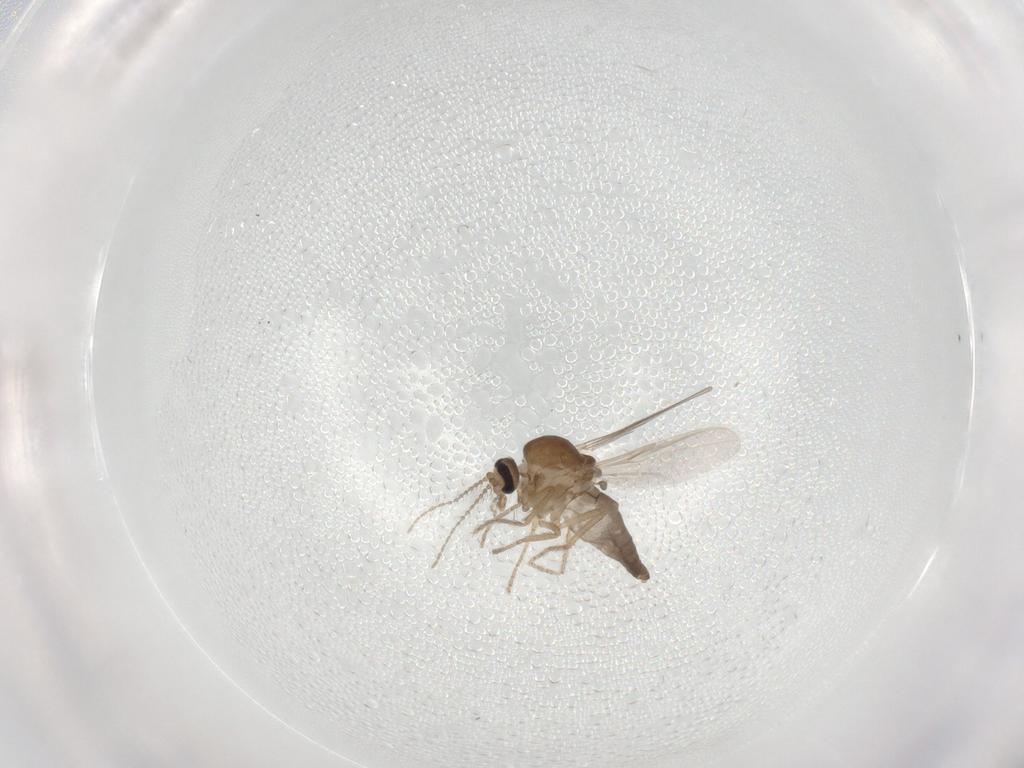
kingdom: Animalia
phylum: Arthropoda
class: Insecta
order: Diptera
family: Ceratopogonidae
